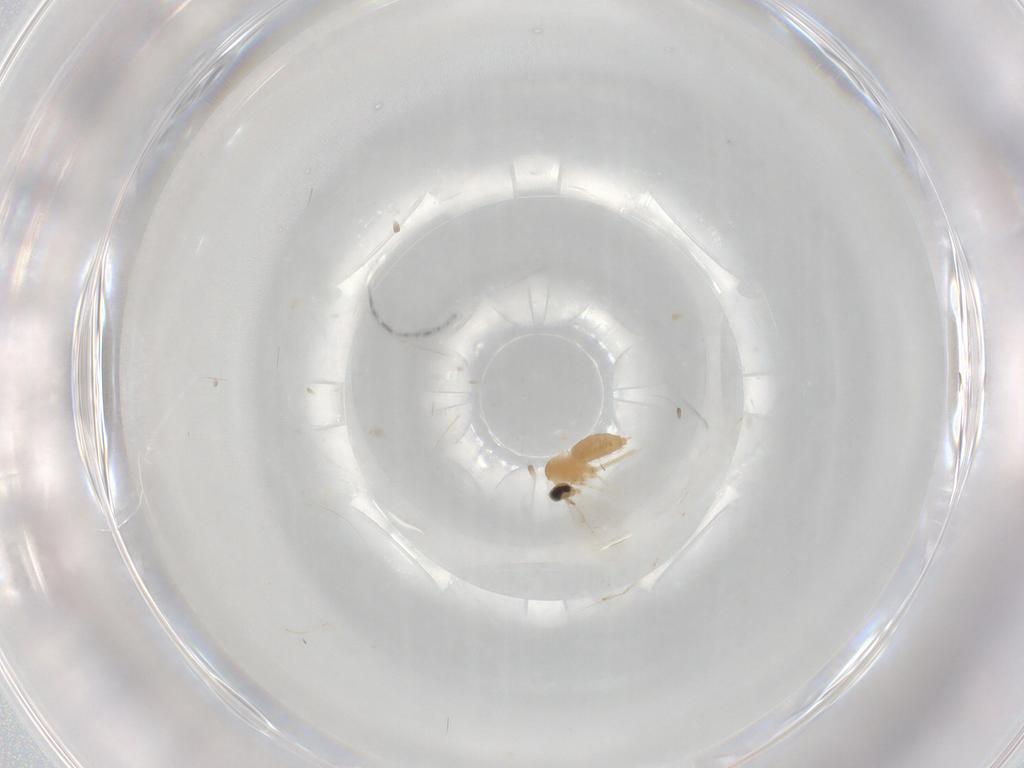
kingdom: Animalia
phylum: Arthropoda
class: Insecta
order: Diptera
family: Cecidomyiidae
